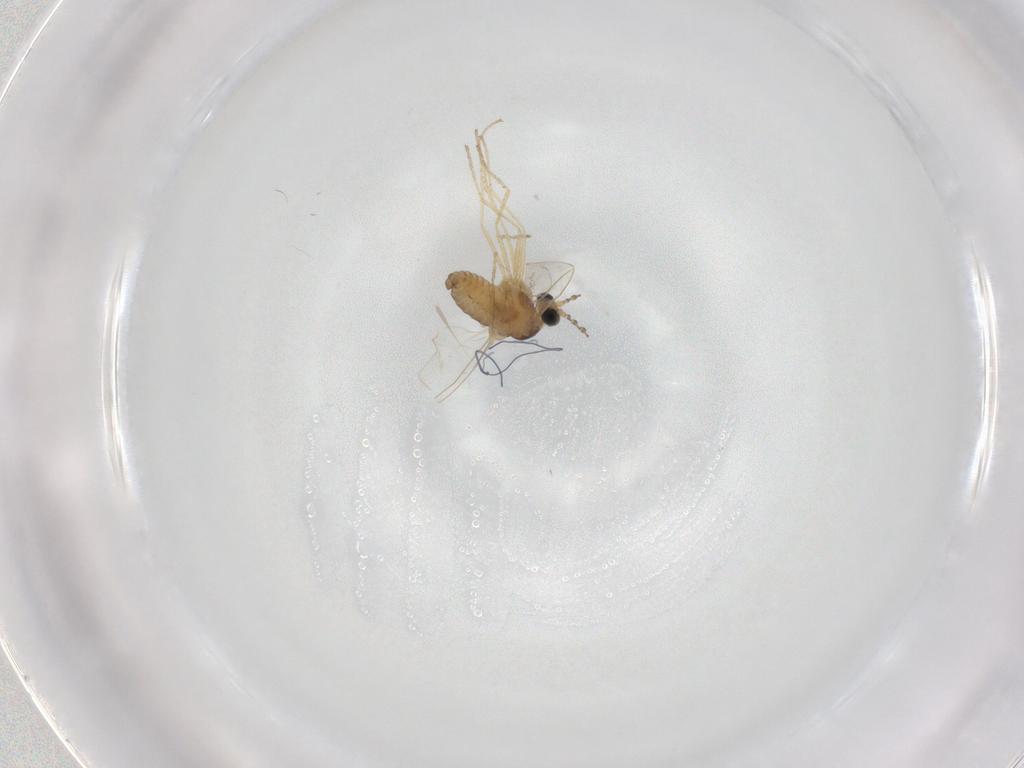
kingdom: Animalia
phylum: Arthropoda
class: Insecta
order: Diptera
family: Cecidomyiidae
